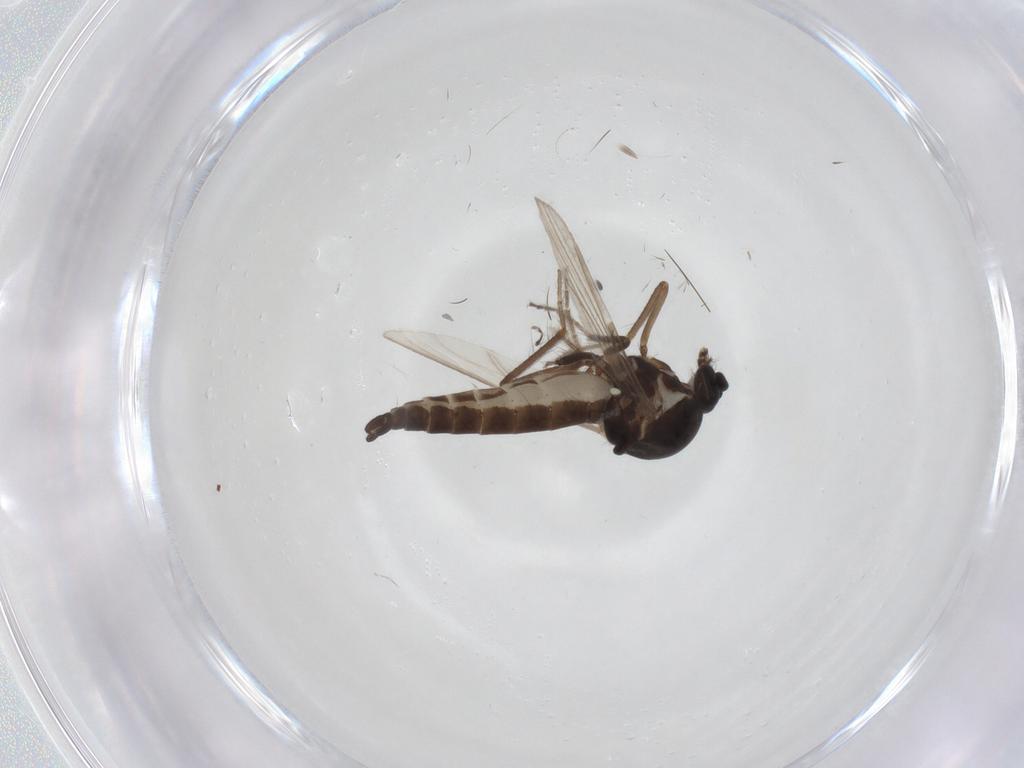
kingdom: Animalia
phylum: Arthropoda
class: Insecta
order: Diptera
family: Ceratopogonidae
